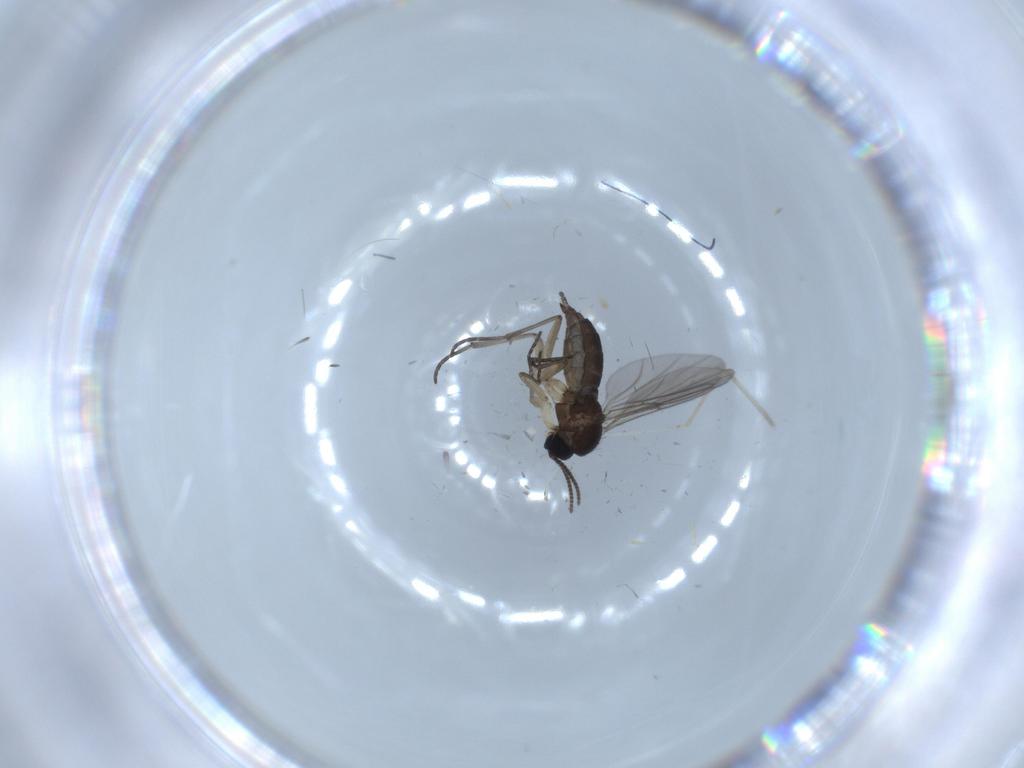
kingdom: Animalia
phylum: Arthropoda
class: Insecta
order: Diptera
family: Sciaridae
